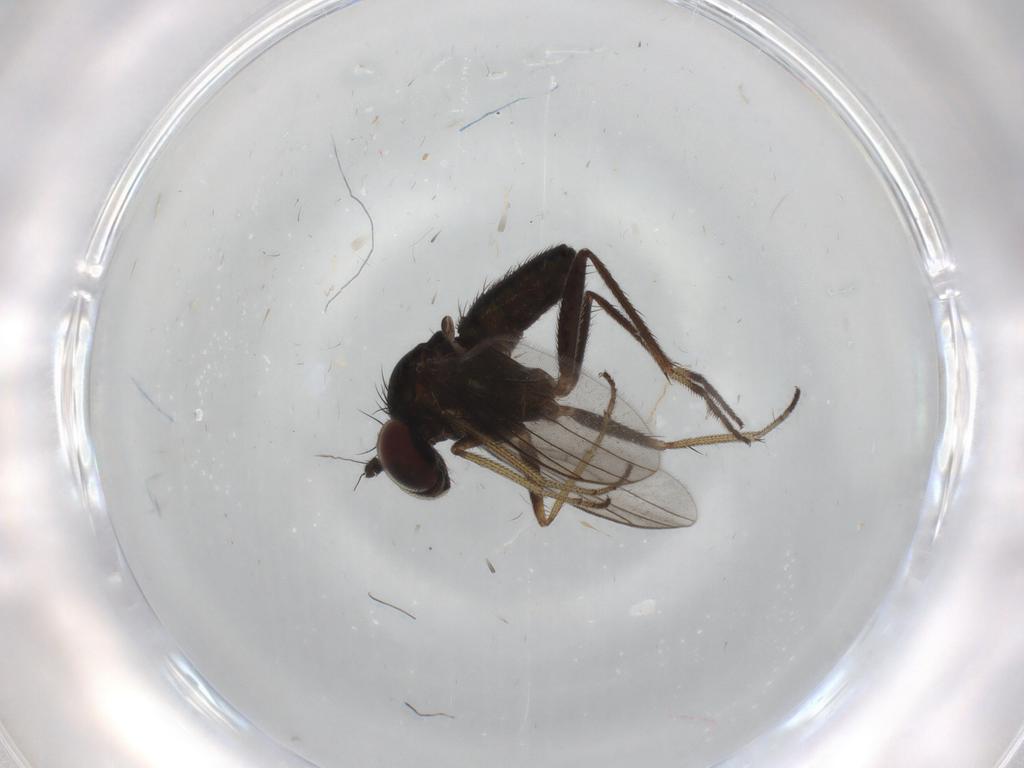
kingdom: Animalia
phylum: Arthropoda
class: Insecta
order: Diptera
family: Dolichopodidae
